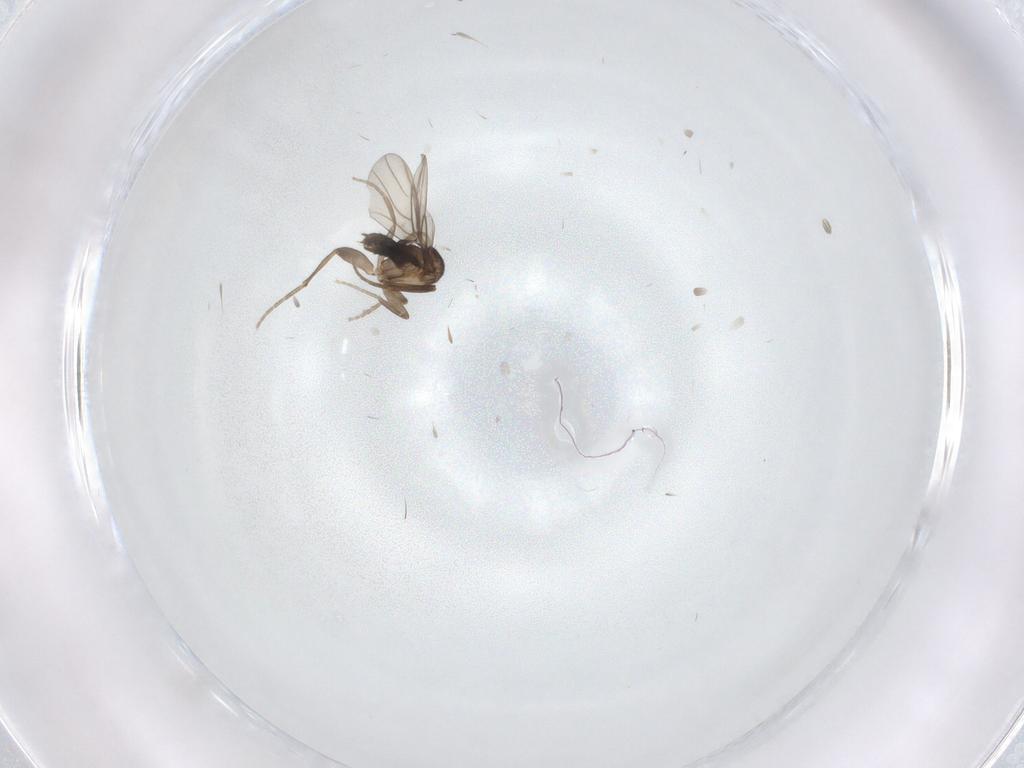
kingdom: Animalia
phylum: Arthropoda
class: Insecta
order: Diptera
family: Ceratopogonidae
